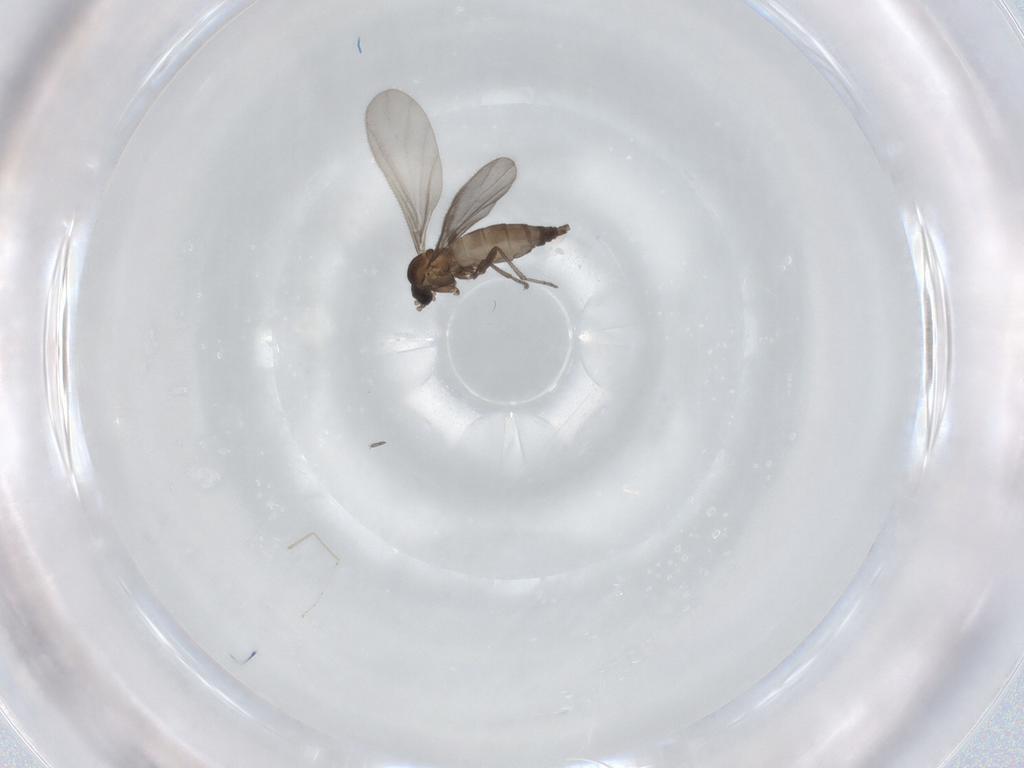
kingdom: Animalia
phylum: Arthropoda
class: Insecta
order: Diptera
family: Sciaridae
